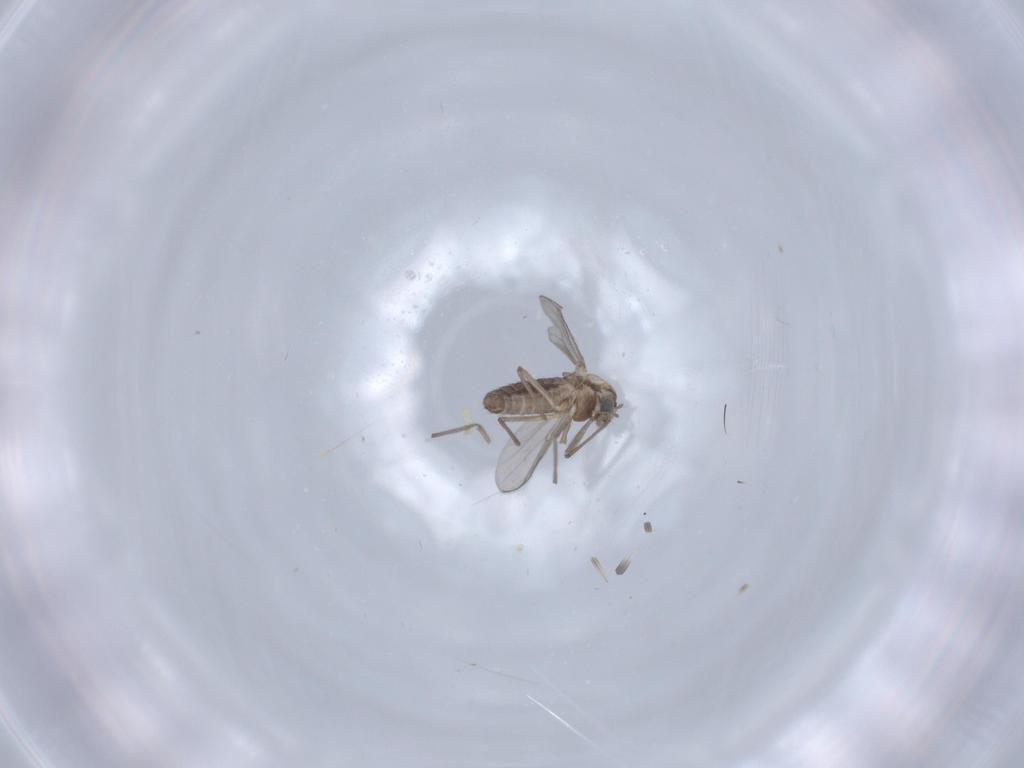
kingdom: Animalia
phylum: Arthropoda
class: Insecta
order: Diptera
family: Chironomidae
